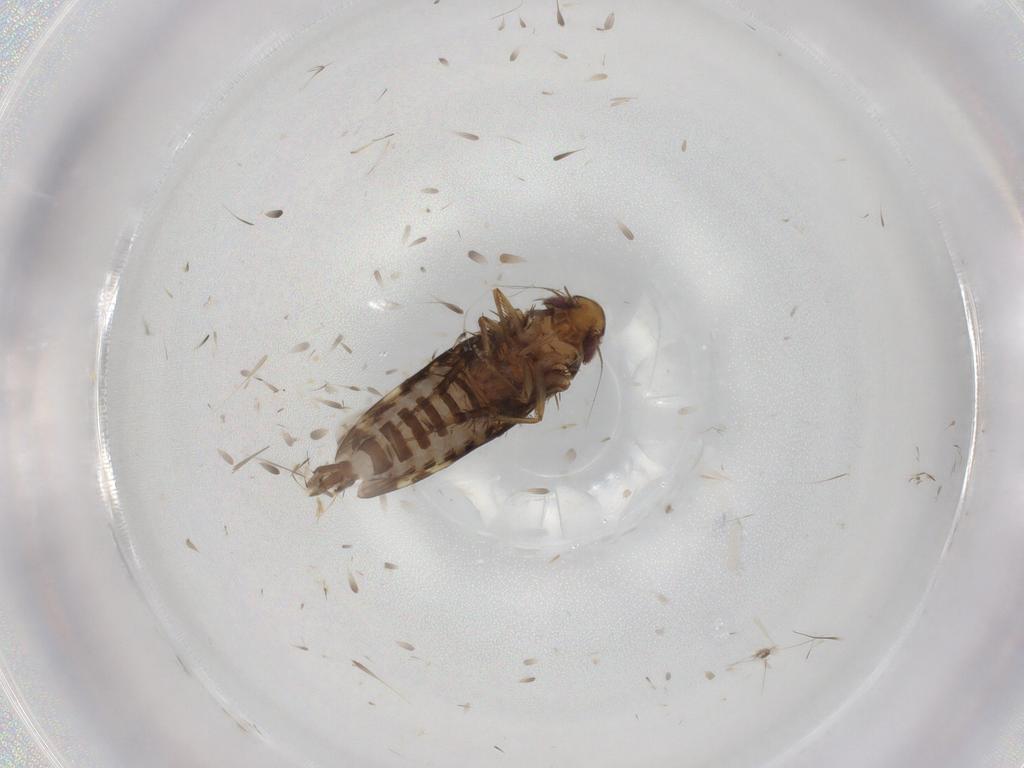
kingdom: Animalia
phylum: Arthropoda
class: Insecta
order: Hemiptera
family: Cicadellidae
